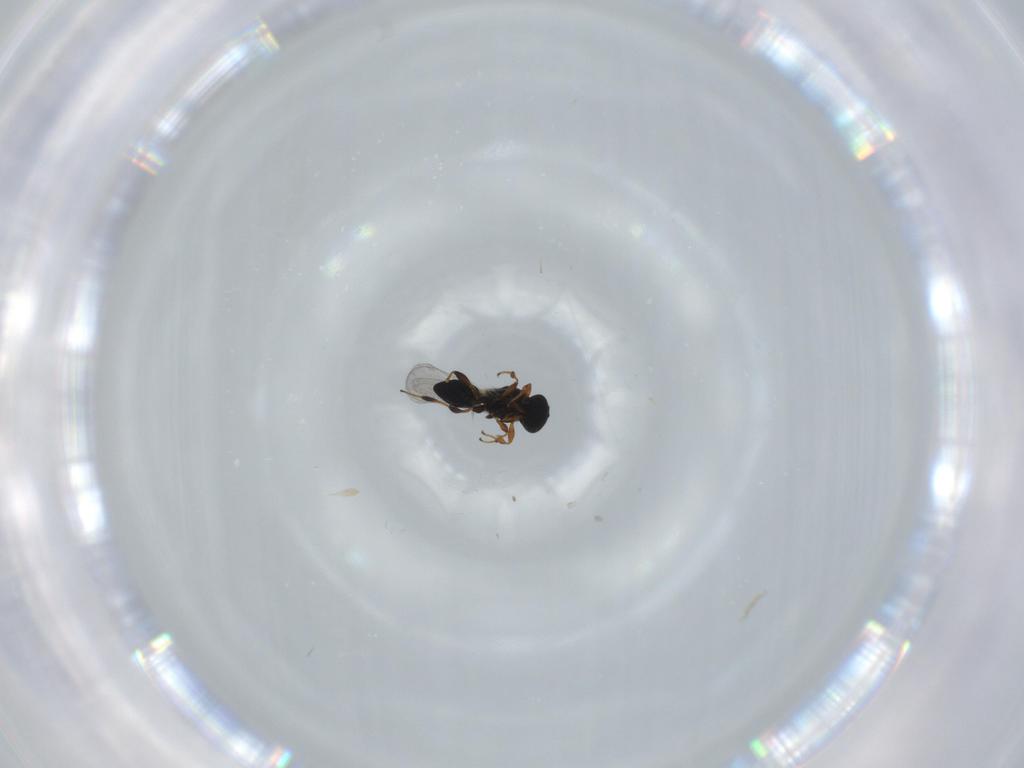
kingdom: Animalia
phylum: Arthropoda
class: Insecta
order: Hymenoptera
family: Platygastridae
